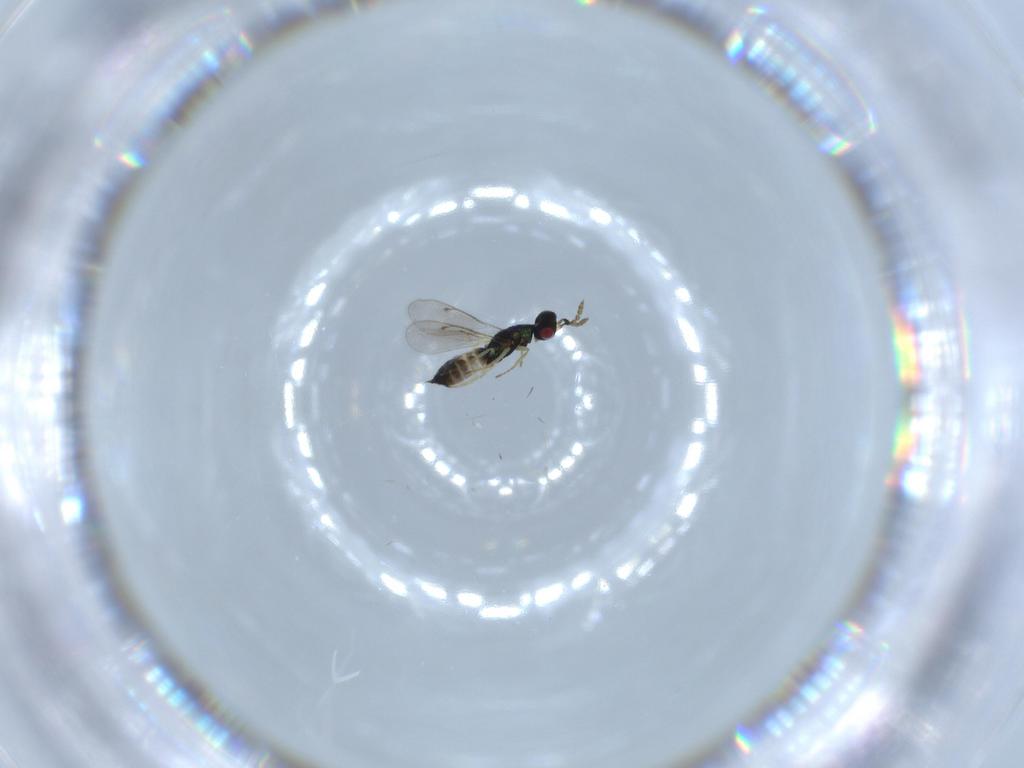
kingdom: Animalia
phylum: Arthropoda
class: Insecta
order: Hymenoptera
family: Eulophidae
